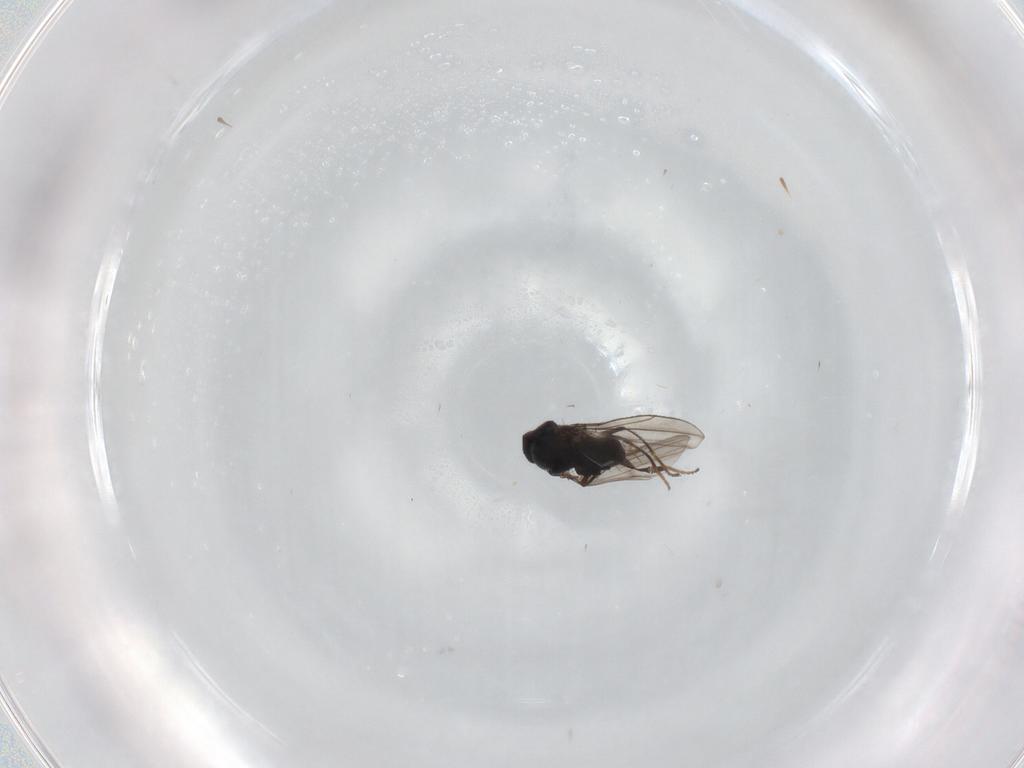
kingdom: Animalia
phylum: Arthropoda
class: Insecta
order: Diptera
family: Ephydridae
